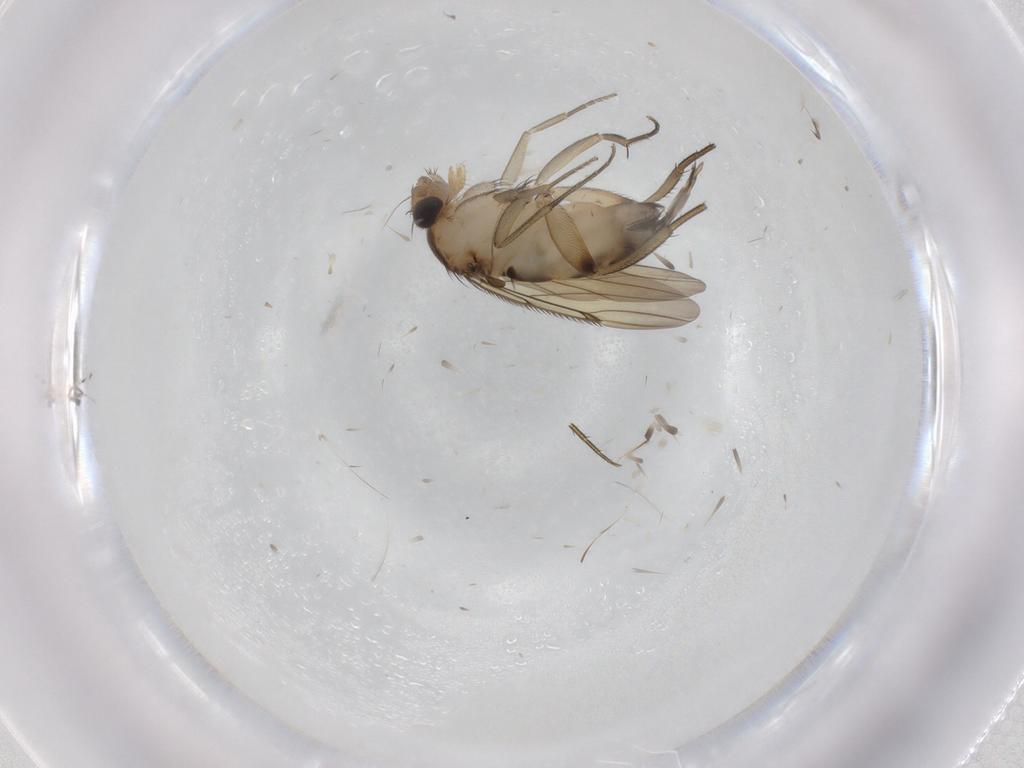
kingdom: Animalia
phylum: Arthropoda
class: Insecta
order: Diptera
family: Phoridae
